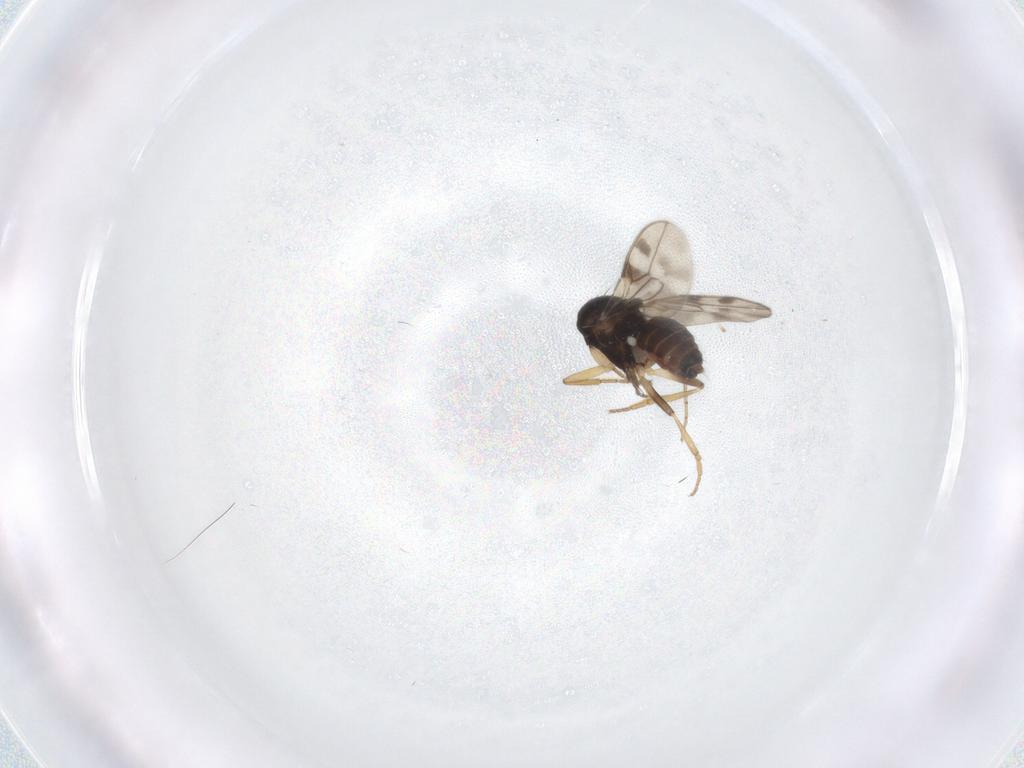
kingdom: Animalia
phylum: Arthropoda
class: Insecta
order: Diptera
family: Sphaeroceridae
